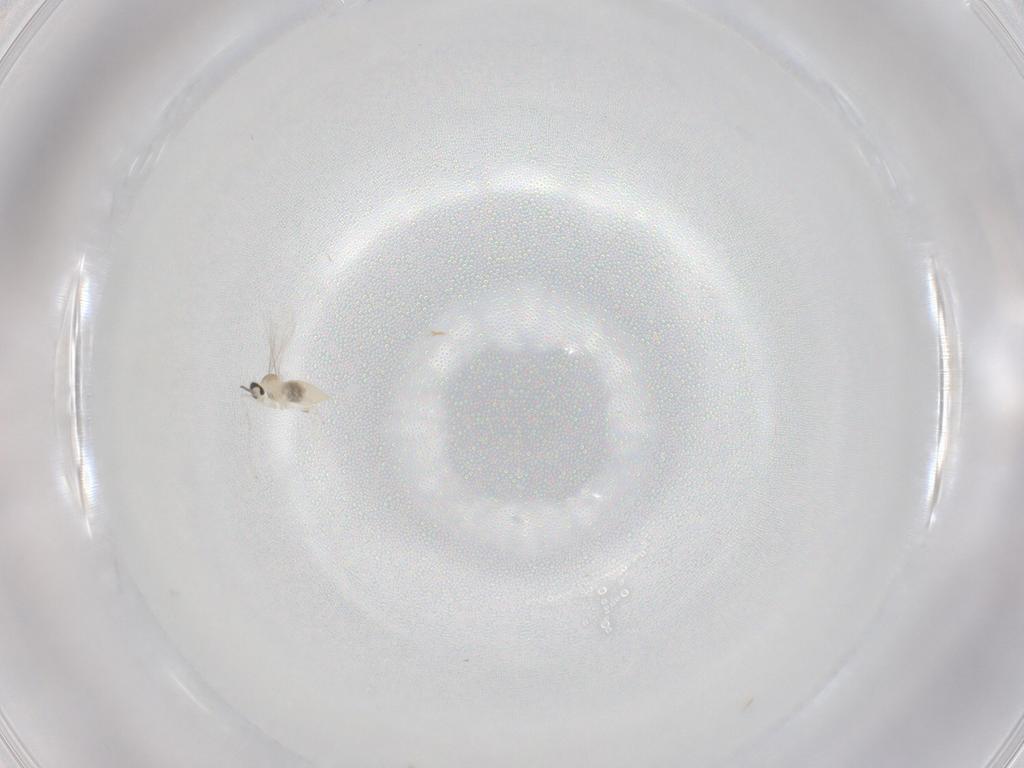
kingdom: Animalia
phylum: Arthropoda
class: Insecta
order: Diptera
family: Cecidomyiidae
